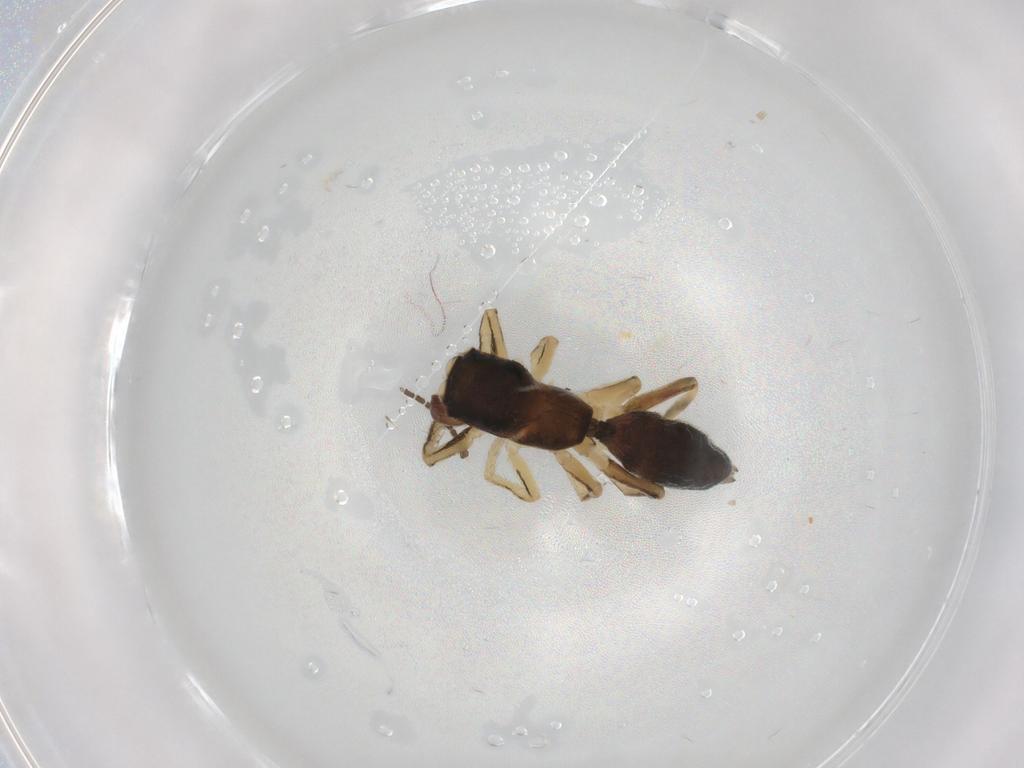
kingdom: Animalia
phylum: Arthropoda
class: Arachnida
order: Araneae
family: Salticidae
